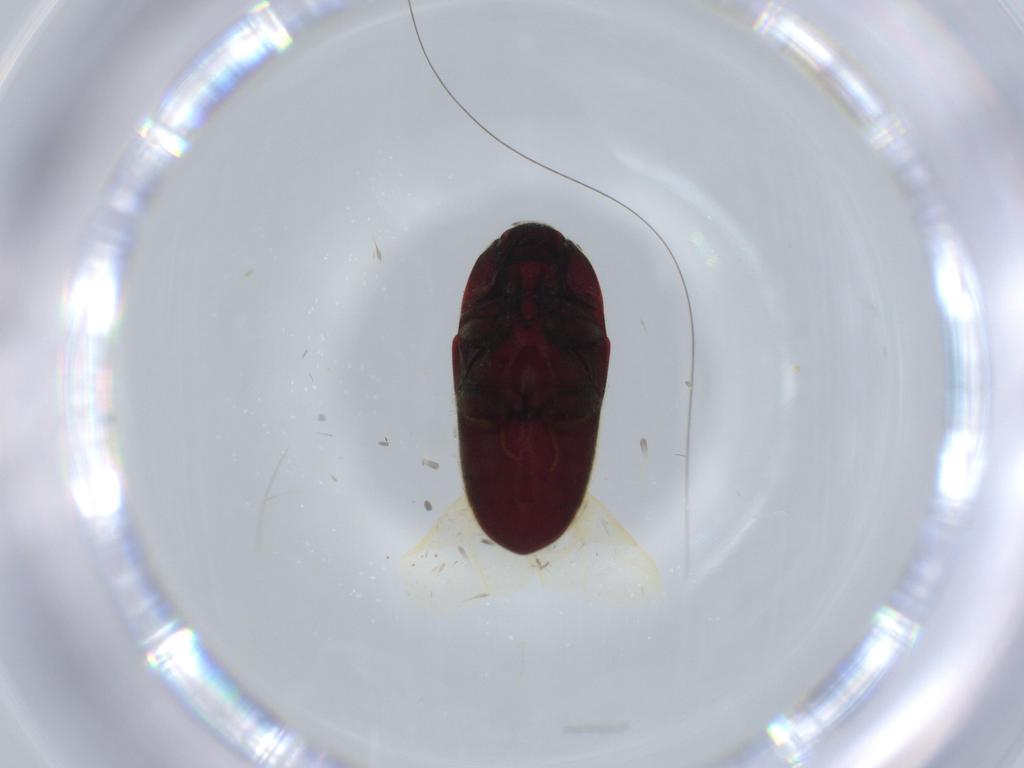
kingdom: Animalia
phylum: Arthropoda
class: Insecta
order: Coleoptera
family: Throscidae
